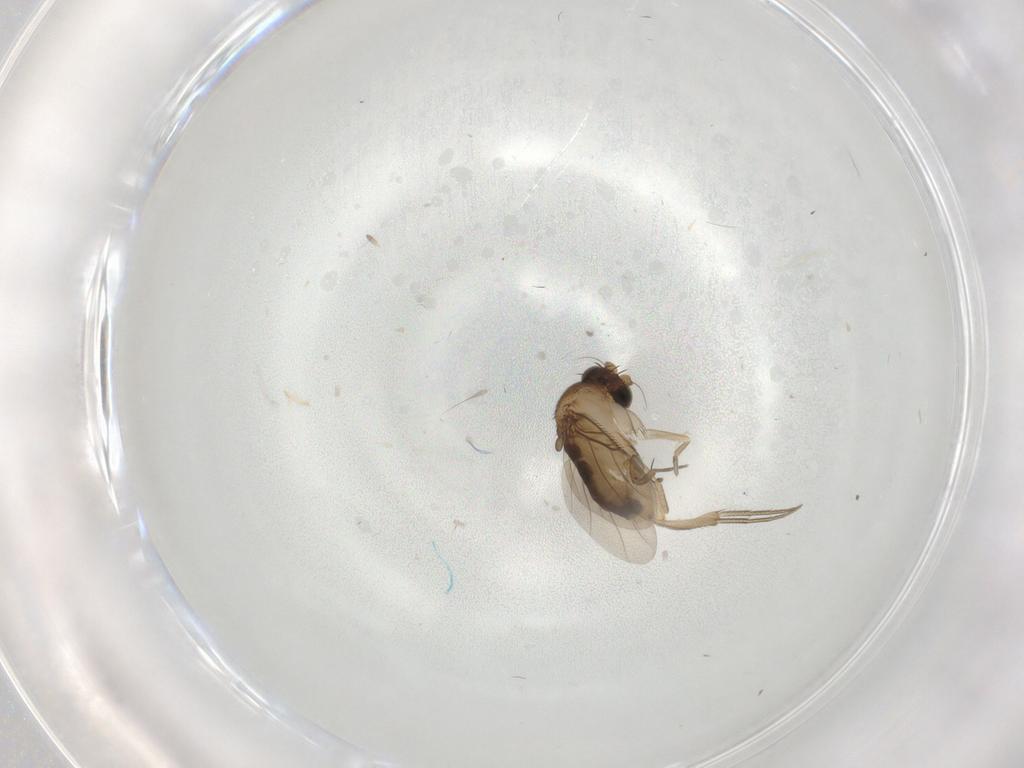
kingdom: Animalia
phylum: Arthropoda
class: Insecta
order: Diptera
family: Phoridae
